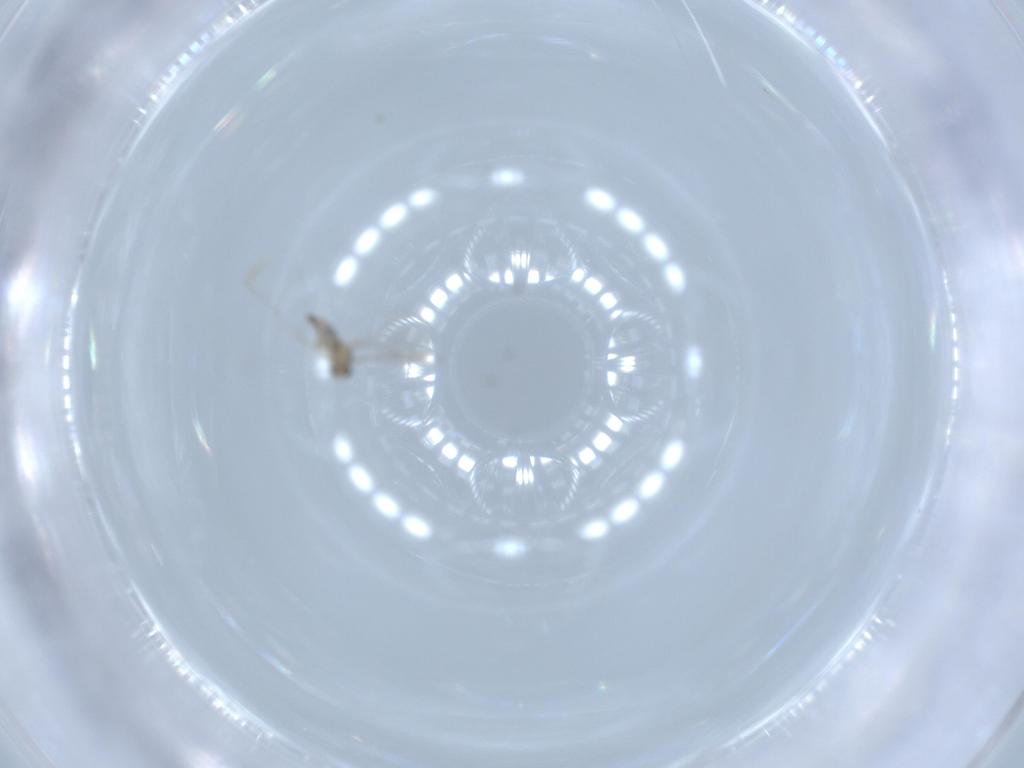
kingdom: Animalia
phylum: Arthropoda
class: Insecta
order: Diptera
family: Cecidomyiidae
